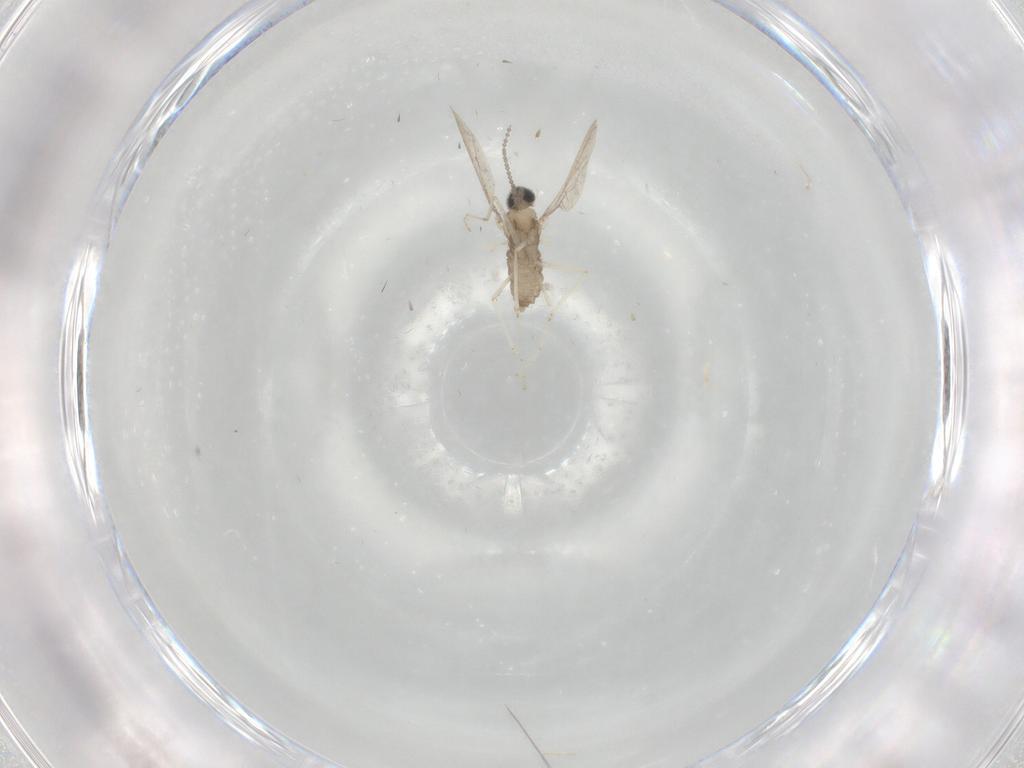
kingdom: Animalia
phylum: Arthropoda
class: Insecta
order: Diptera
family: Cecidomyiidae
